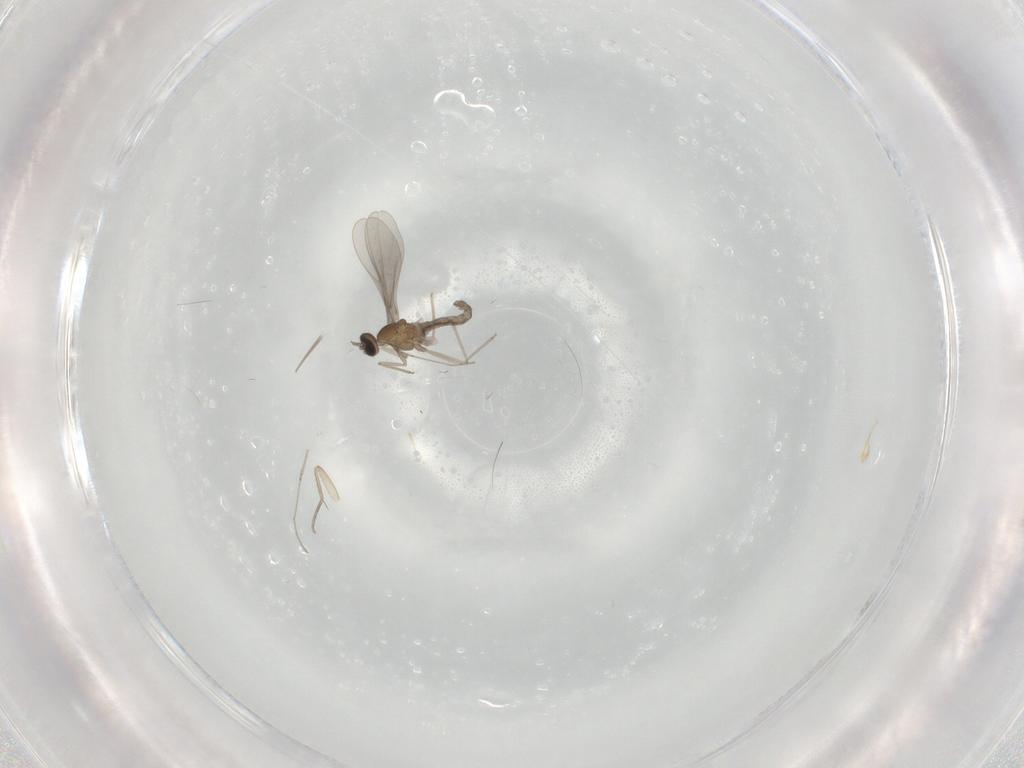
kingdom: Animalia
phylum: Arthropoda
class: Insecta
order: Diptera
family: Cecidomyiidae
